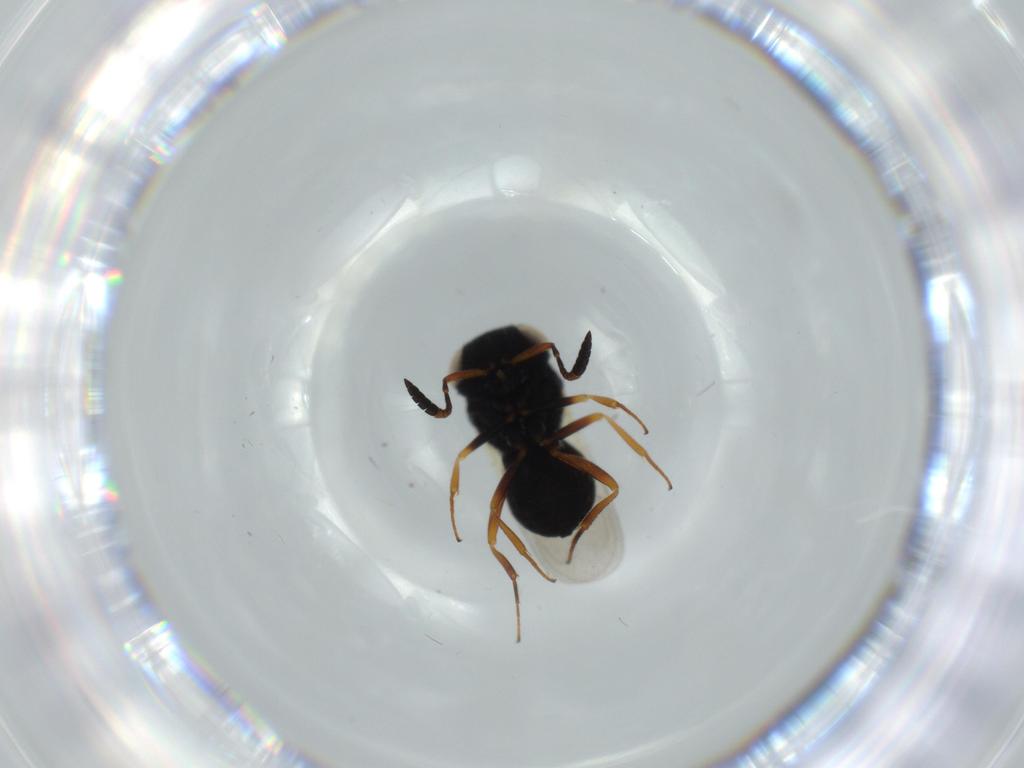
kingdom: Animalia
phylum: Arthropoda
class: Insecta
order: Hymenoptera
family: Scelionidae
